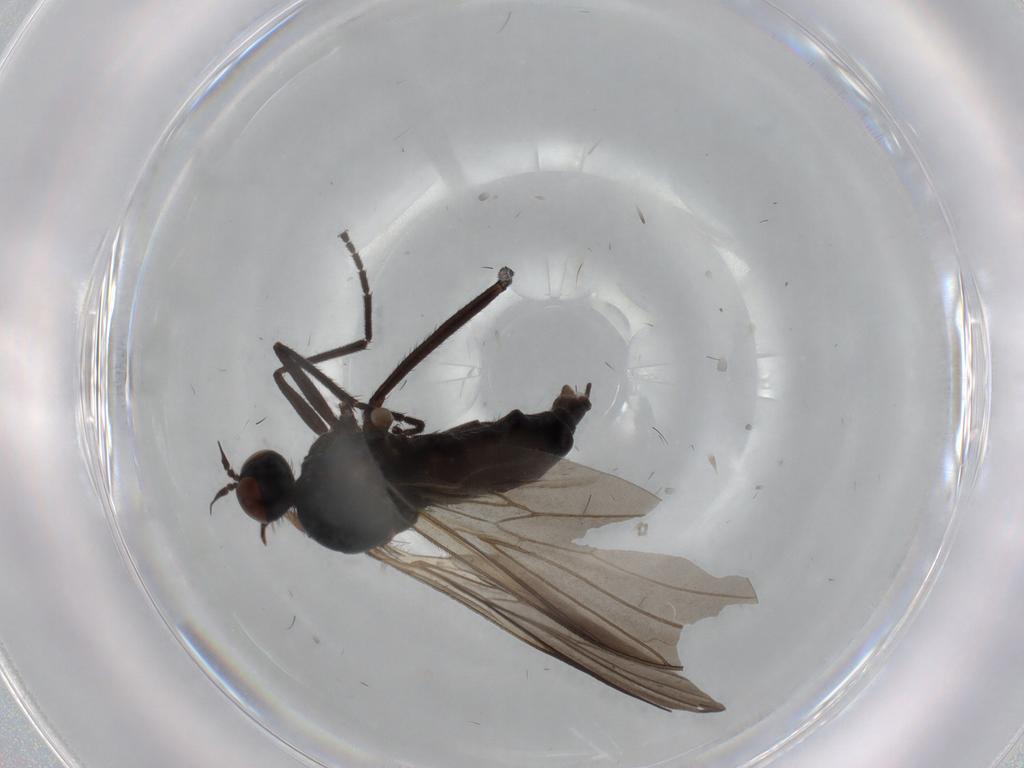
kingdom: Animalia
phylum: Arthropoda
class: Insecta
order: Diptera
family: Empididae
